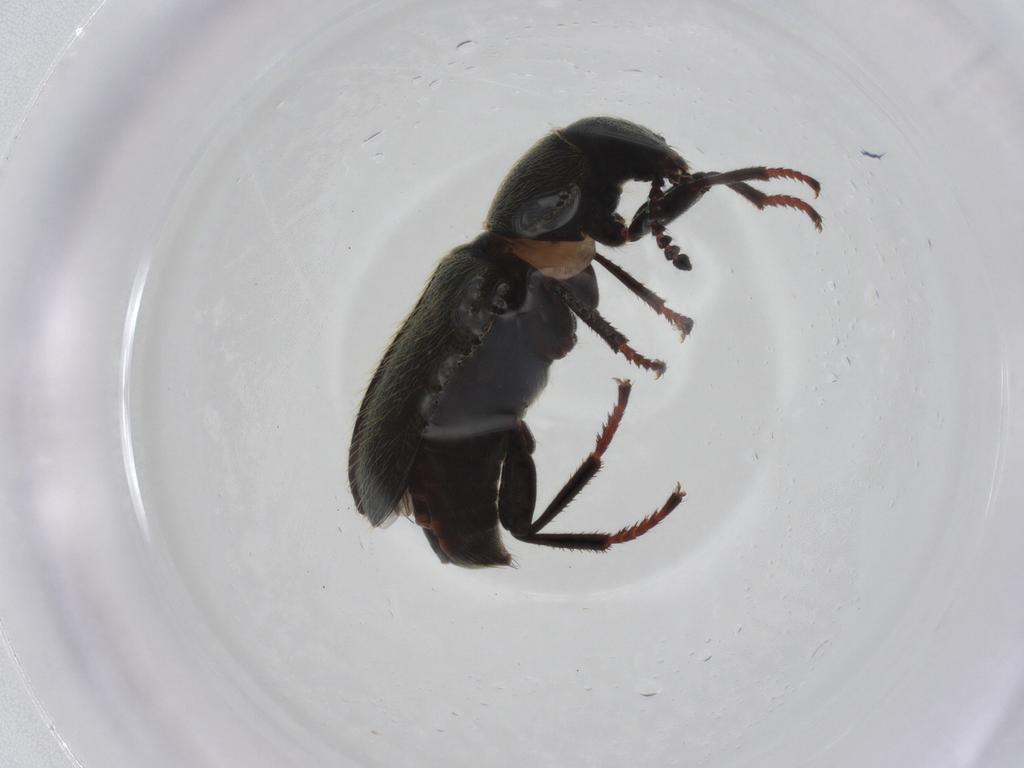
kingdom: Animalia
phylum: Arthropoda
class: Insecta
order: Coleoptera
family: Melyridae
